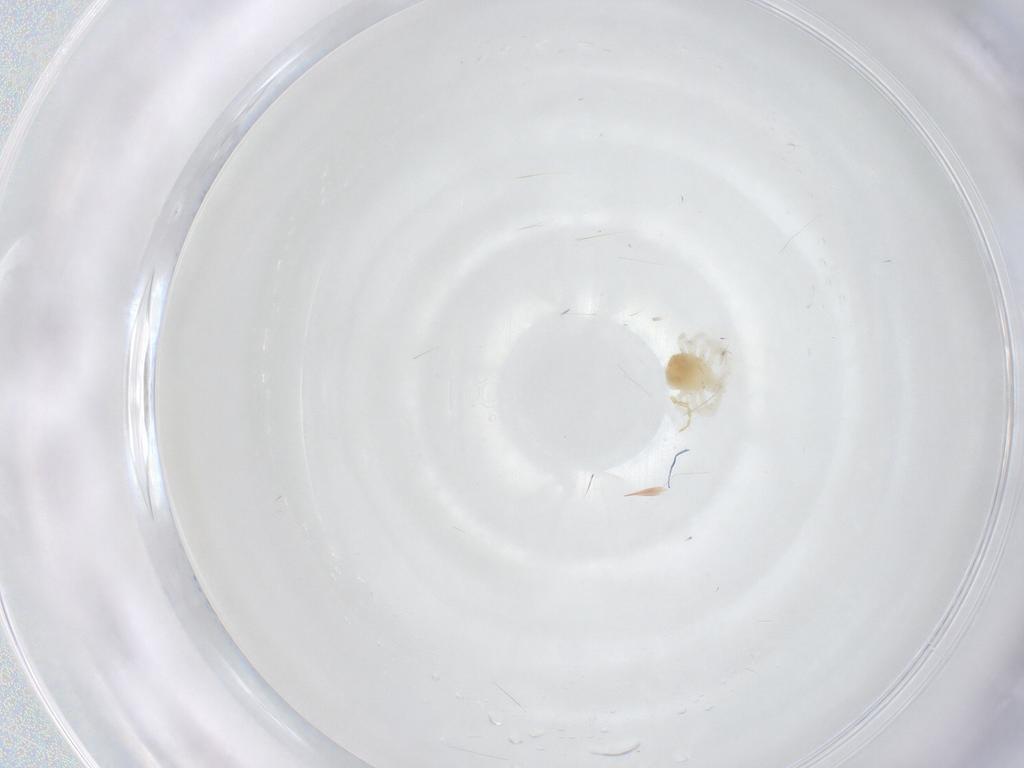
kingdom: Animalia
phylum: Arthropoda
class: Arachnida
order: Trombidiformes
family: Anystidae
